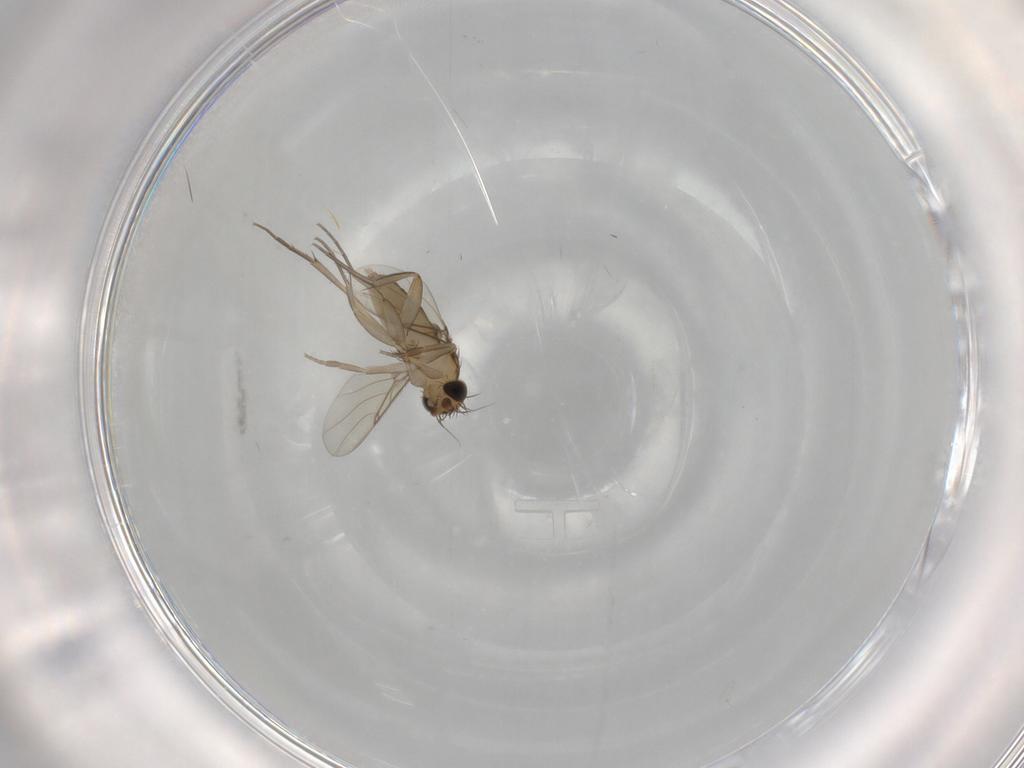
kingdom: Animalia
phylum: Arthropoda
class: Insecta
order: Diptera
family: Phoridae
